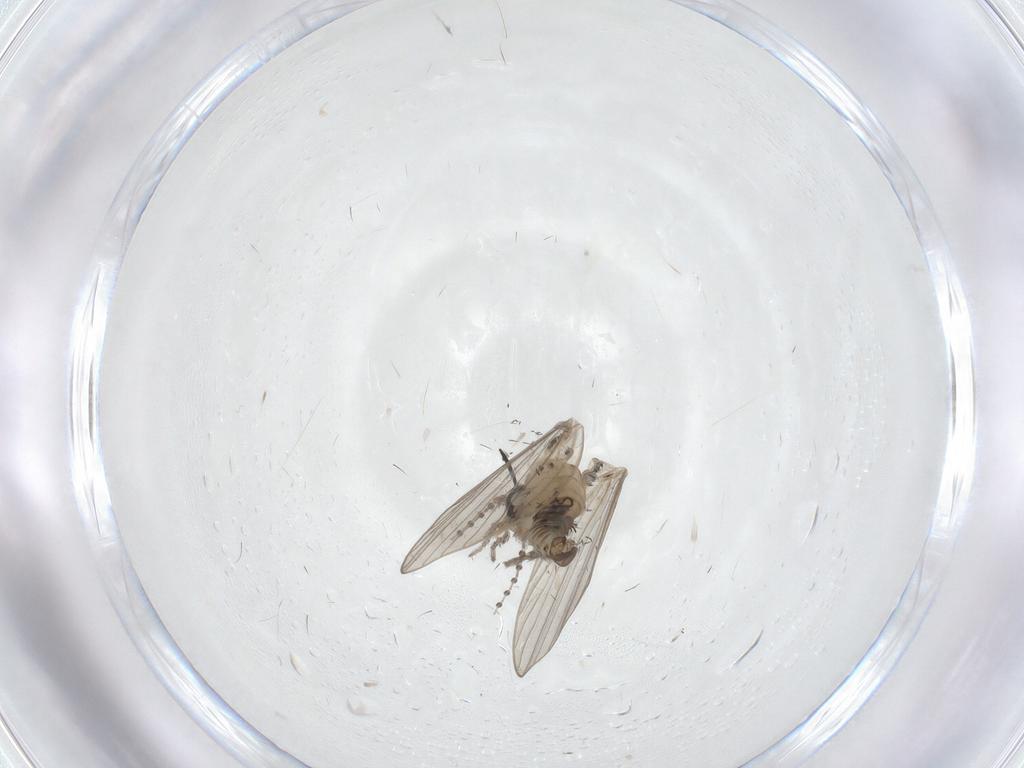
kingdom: Animalia
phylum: Arthropoda
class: Insecta
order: Diptera
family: Psychodidae
